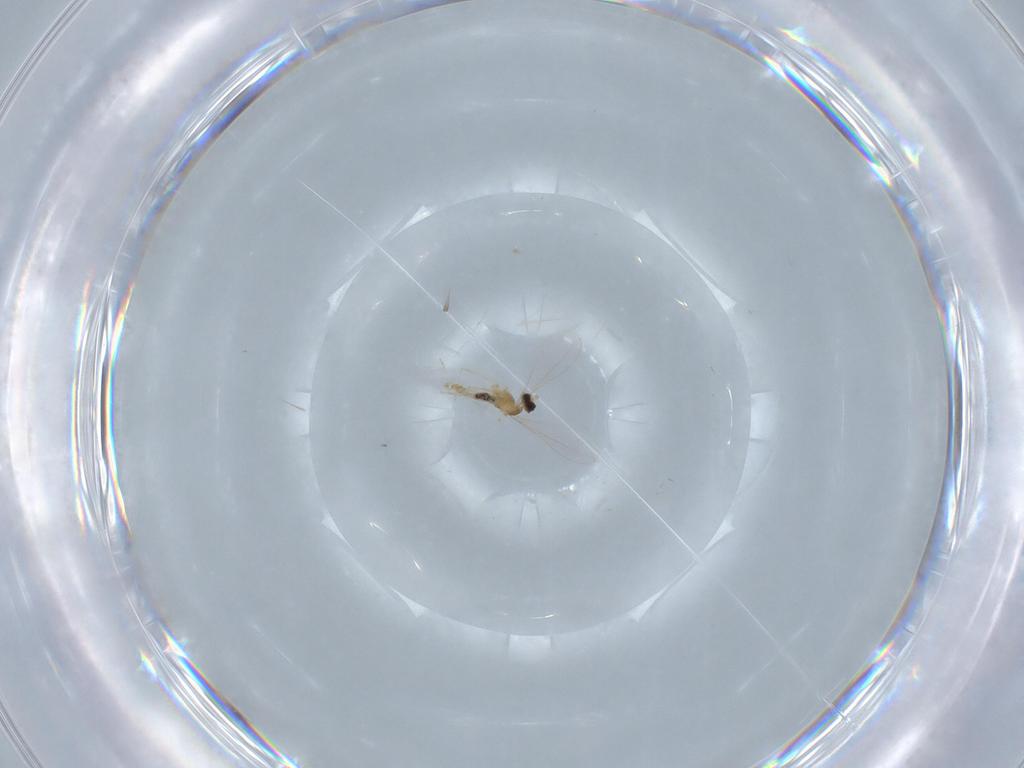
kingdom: Animalia
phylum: Arthropoda
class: Insecta
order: Diptera
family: Cecidomyiidae
